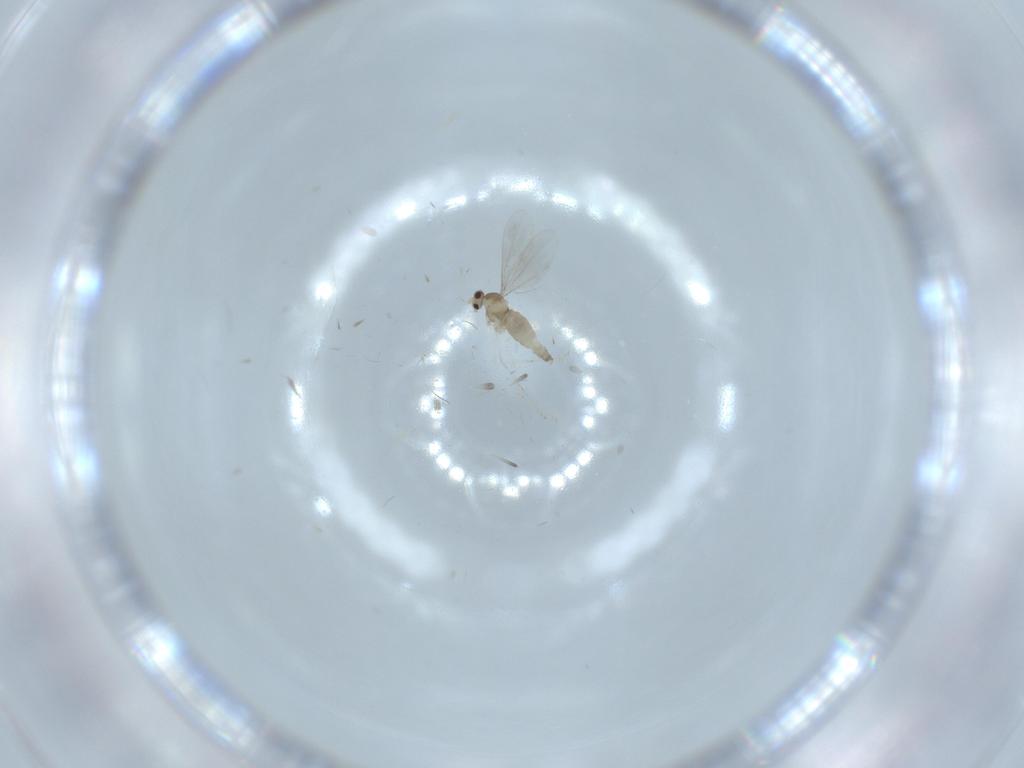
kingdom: Animalia
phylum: Arthropoda
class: Insecta
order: Diptera
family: Cecidomyiidae
